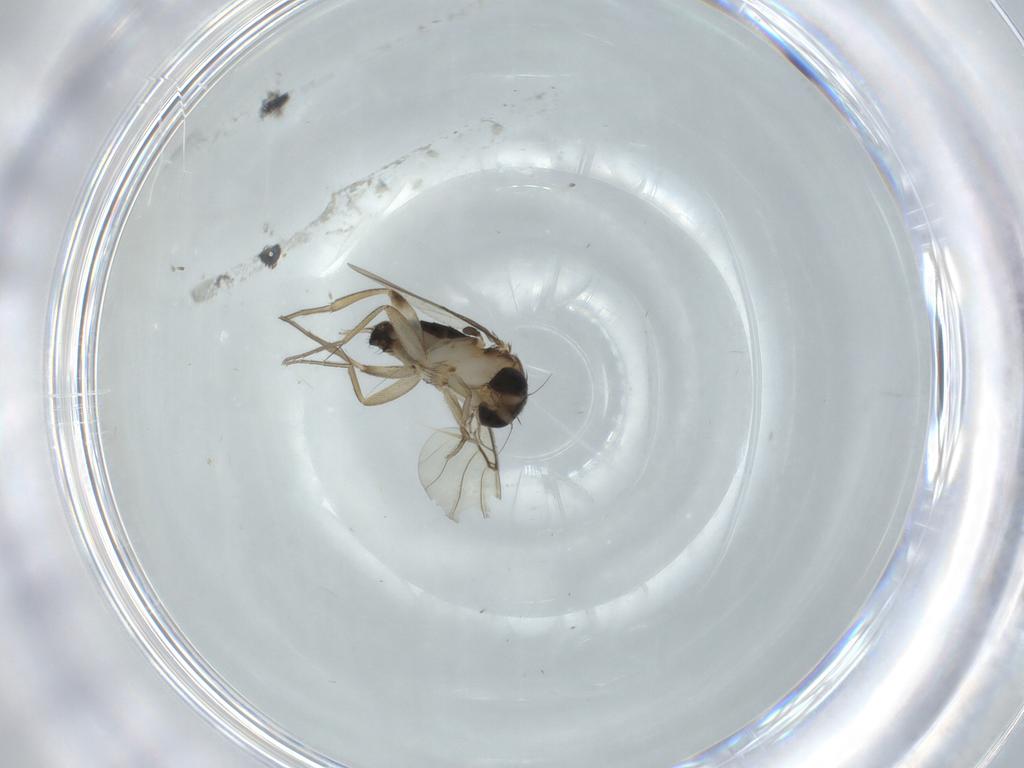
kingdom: Animalia
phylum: Arthropoda
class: Insecta
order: Diptera
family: Phoridae
